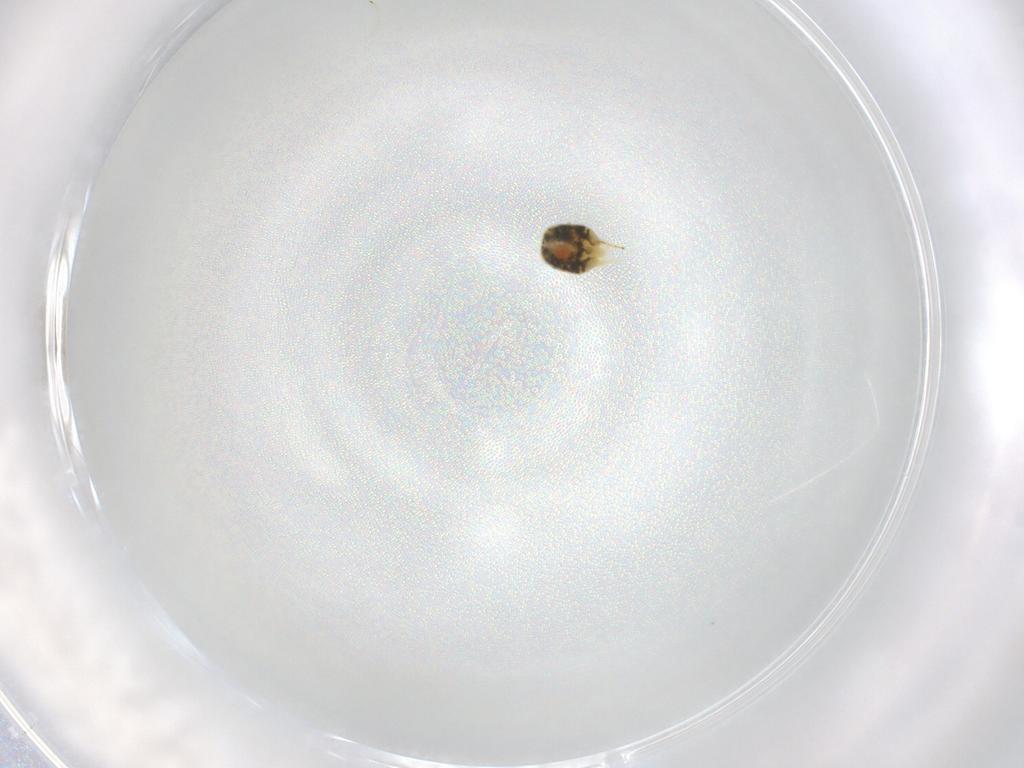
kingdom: Animalia
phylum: Arthropoda
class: Arachnida
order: Trombidiformes
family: Tetranychidae
